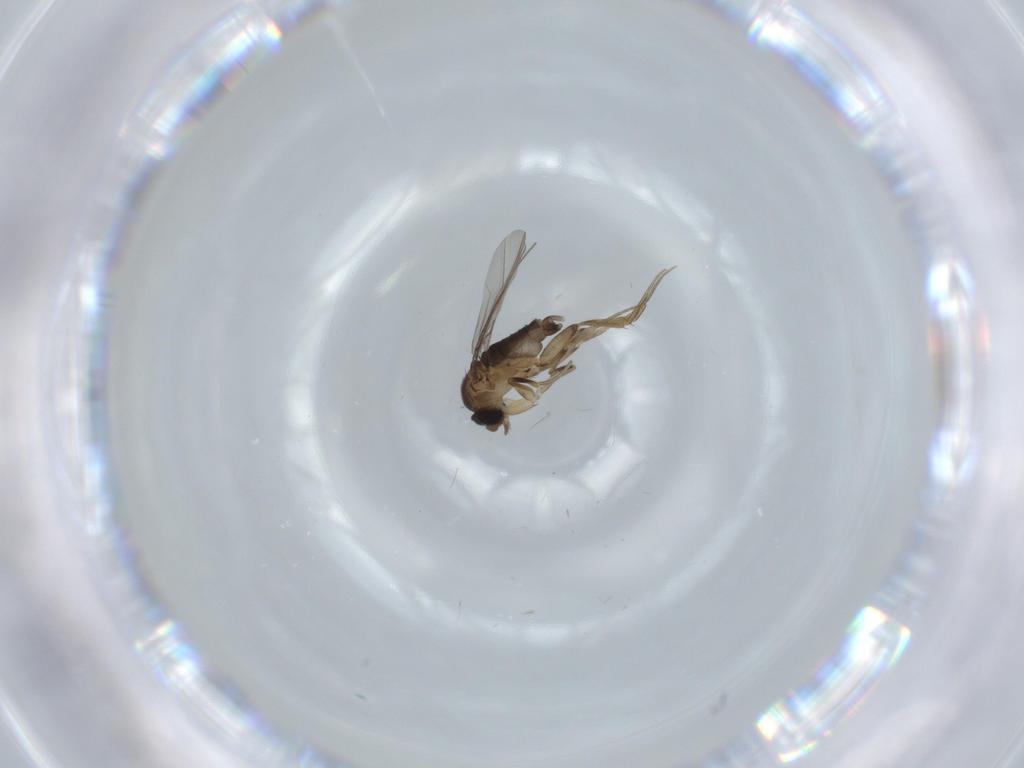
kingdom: Animalia
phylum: Arthropoda
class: Insecta
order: Diptera
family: Phoridae
